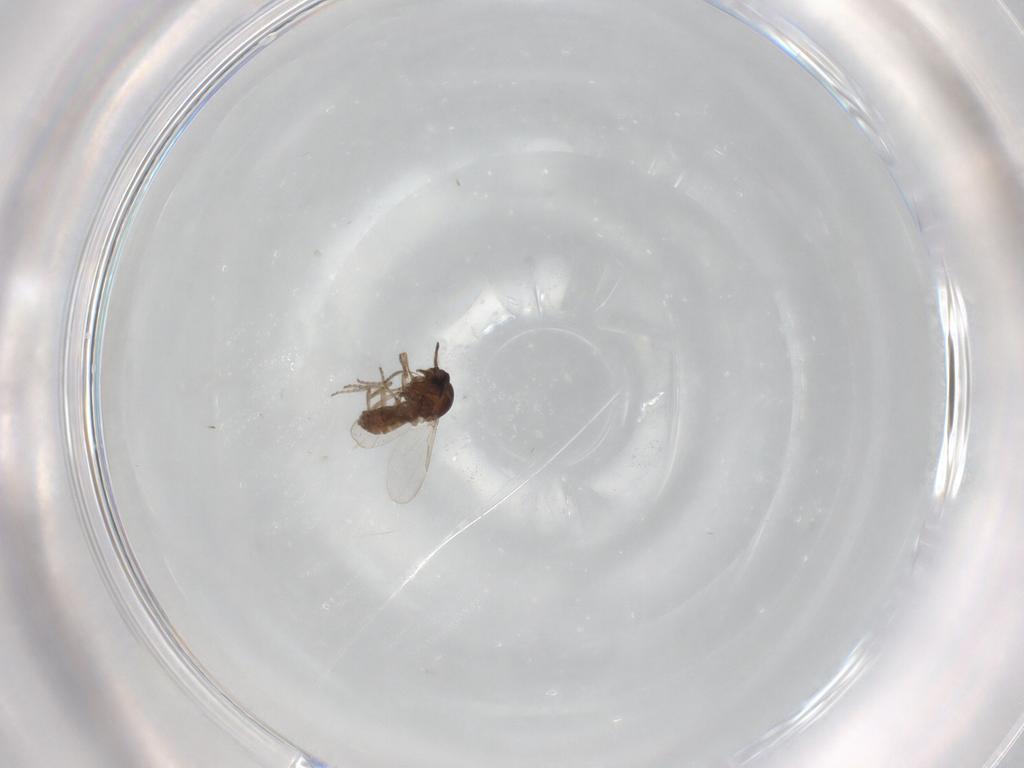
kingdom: Animalia
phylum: Arthropoda
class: Insecta
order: Diptera
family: Ceratopogonidae
